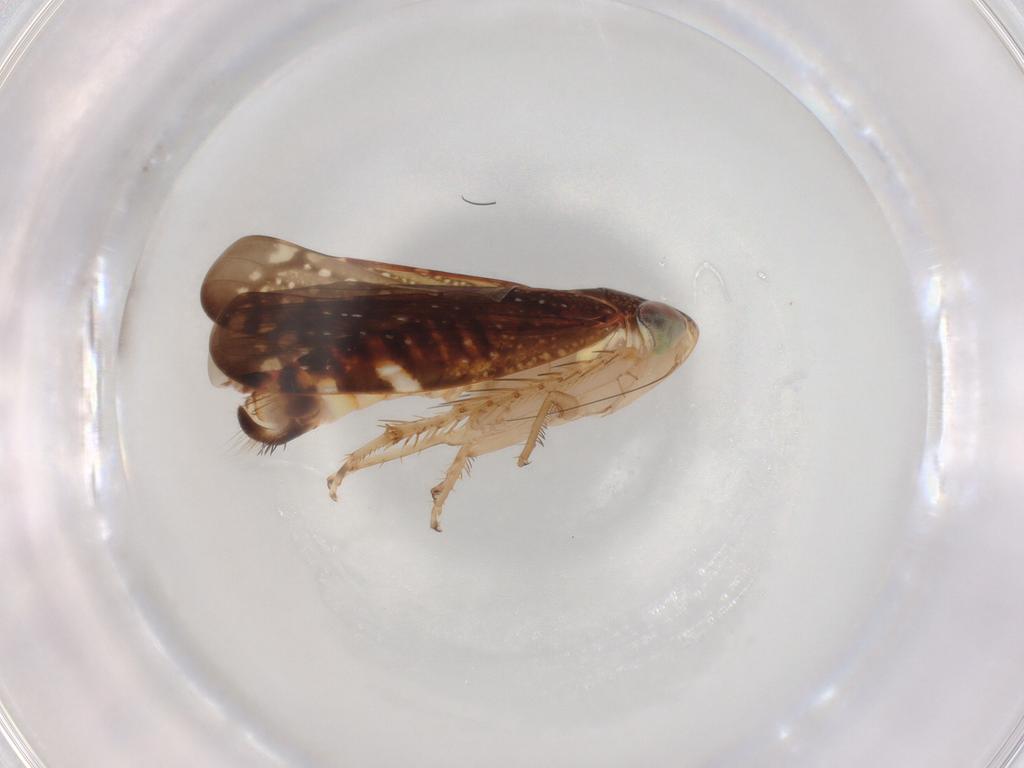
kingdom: Animalia
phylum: Arthropoda
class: Insecta
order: Hemiptera
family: Cicadellidae
